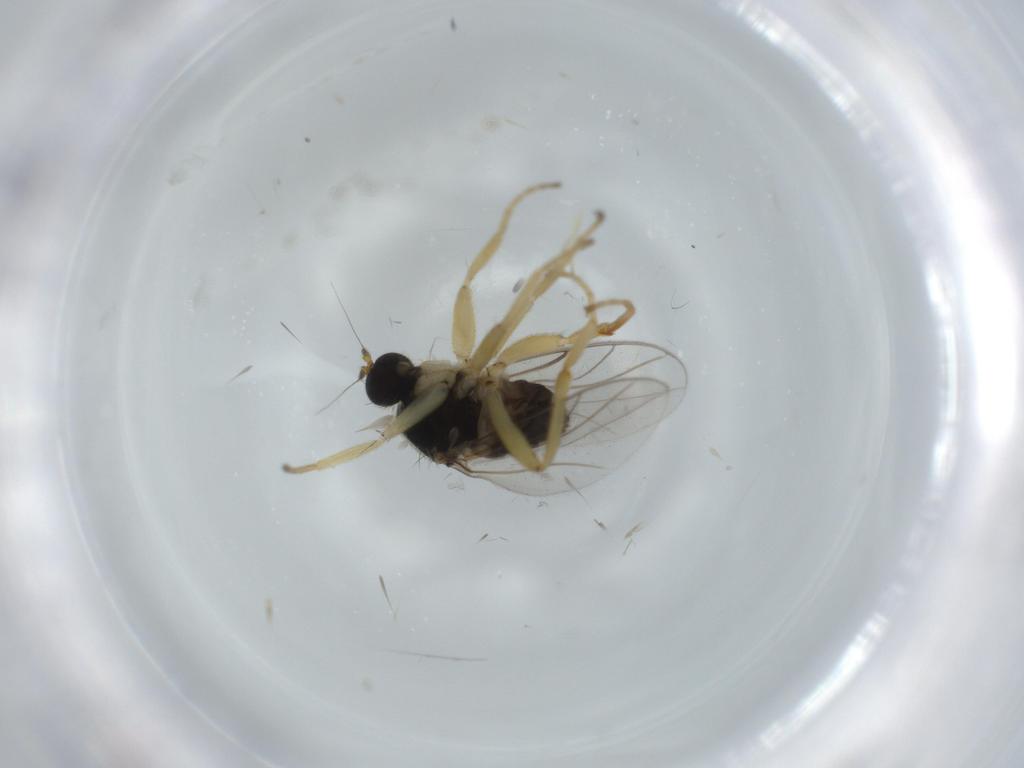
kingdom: Animalia
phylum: Arthropoda
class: Insecta
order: Diptera
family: Hybotidae
